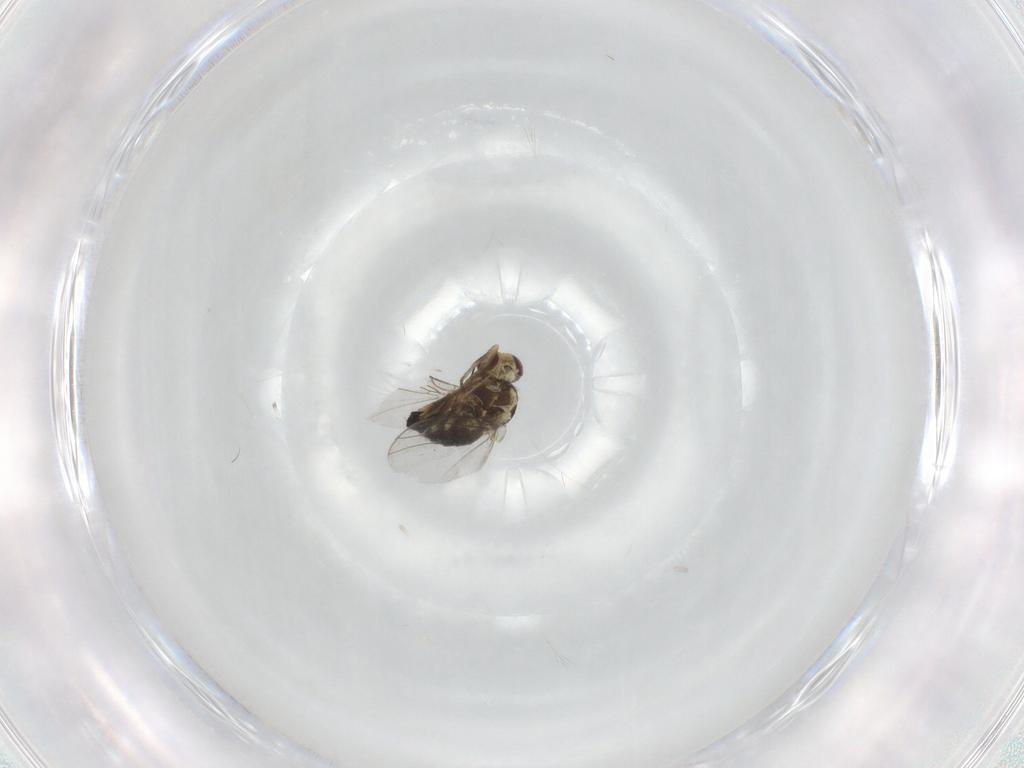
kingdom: Animalia
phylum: Arthropoda
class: Insecta
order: Diptera
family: Agromyzidae
